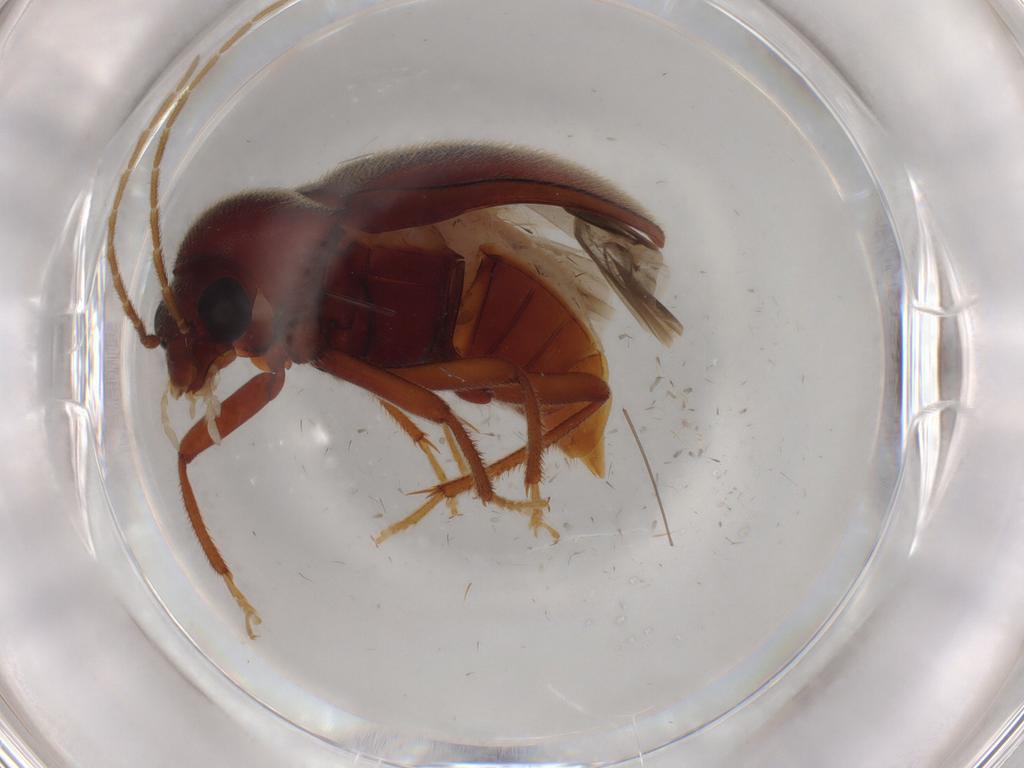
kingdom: Animalia
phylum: Arthropoda
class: Insecta
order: Coleoptera
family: Ptilodactylidae
